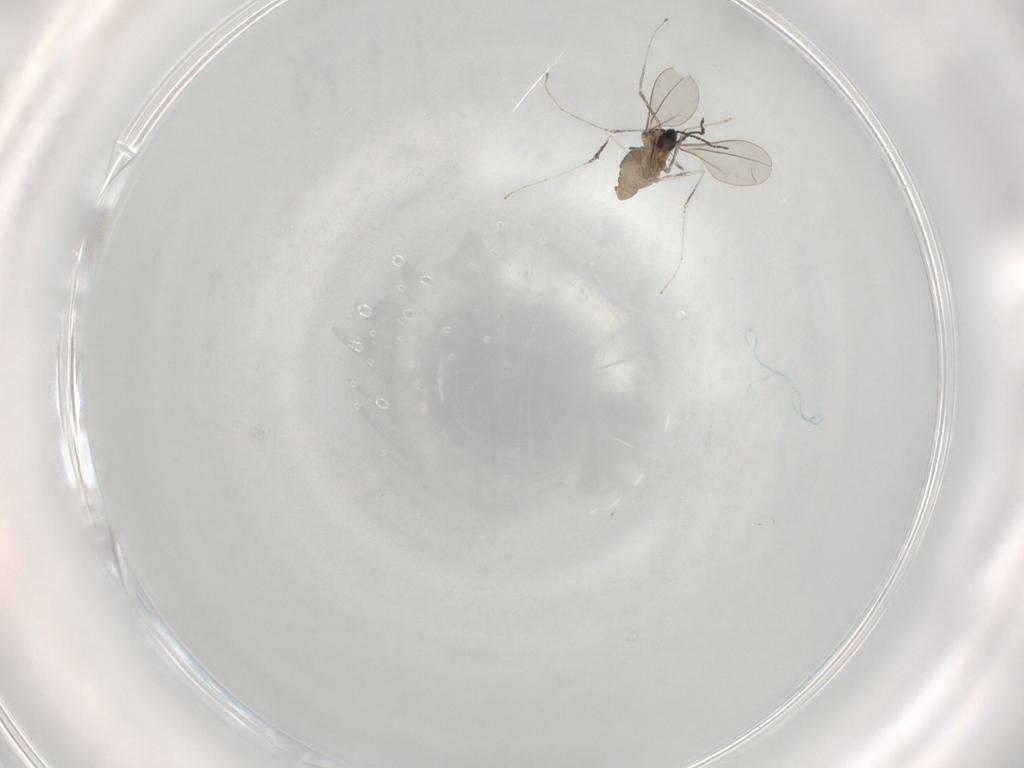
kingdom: Animalia
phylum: Arthropoda
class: Insecta
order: Diptera
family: Cecidomyiidae
